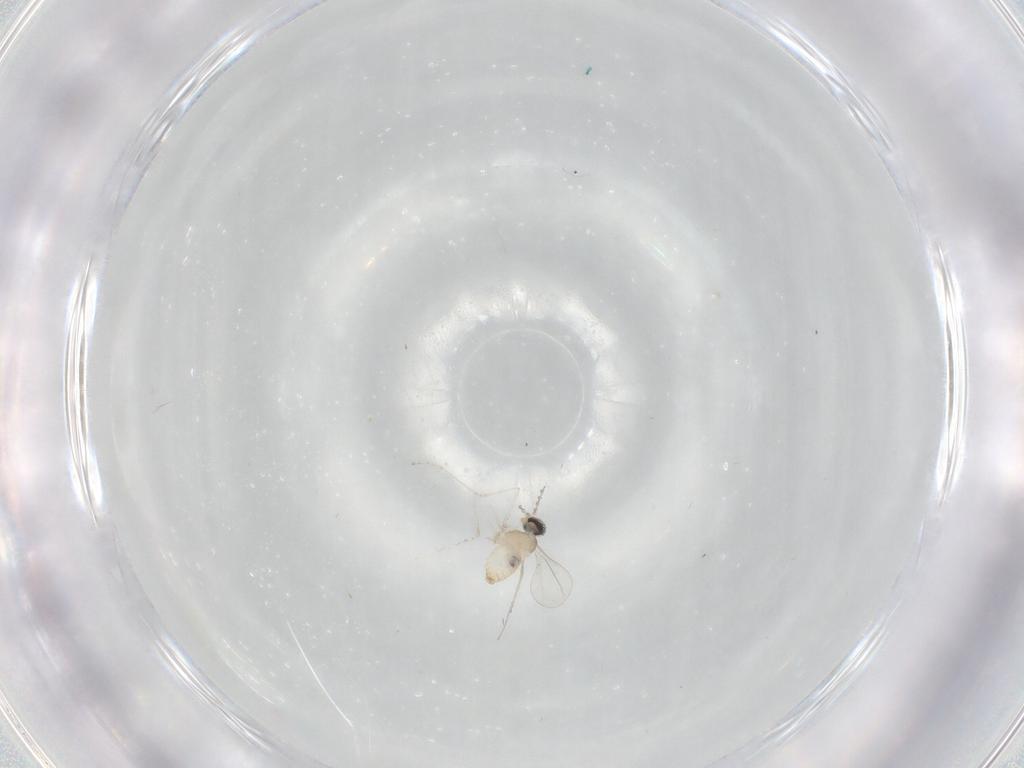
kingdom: Animalia
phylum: Arthropoda
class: Insecta
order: Diptera
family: Cecidomyiidae
